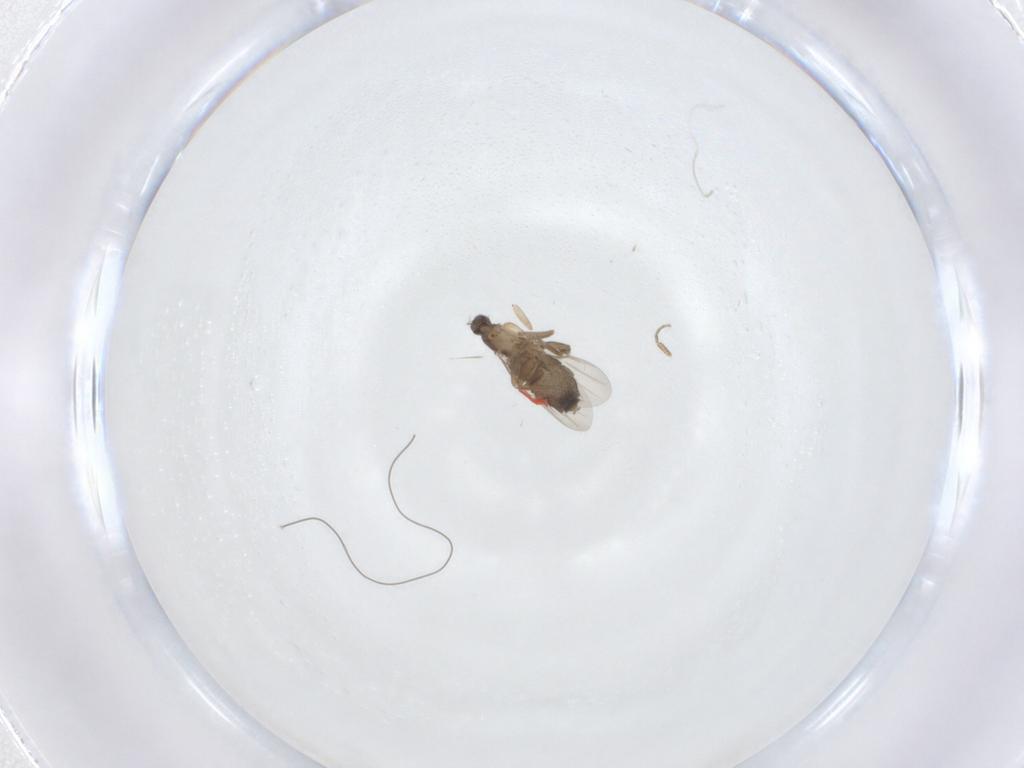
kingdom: Animalia
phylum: Arthropoda
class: Insecta
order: Diptera
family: Phoridae
